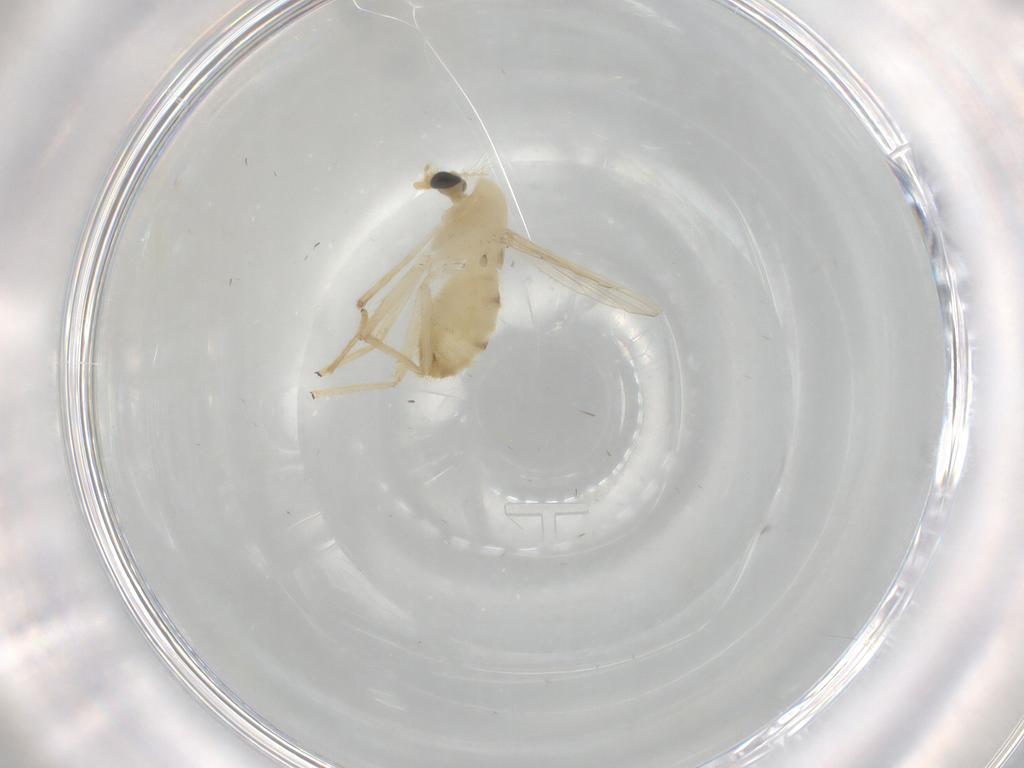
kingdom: Animalia
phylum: Arthropoda
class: Insecta
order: Diptera
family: Chironomidae
